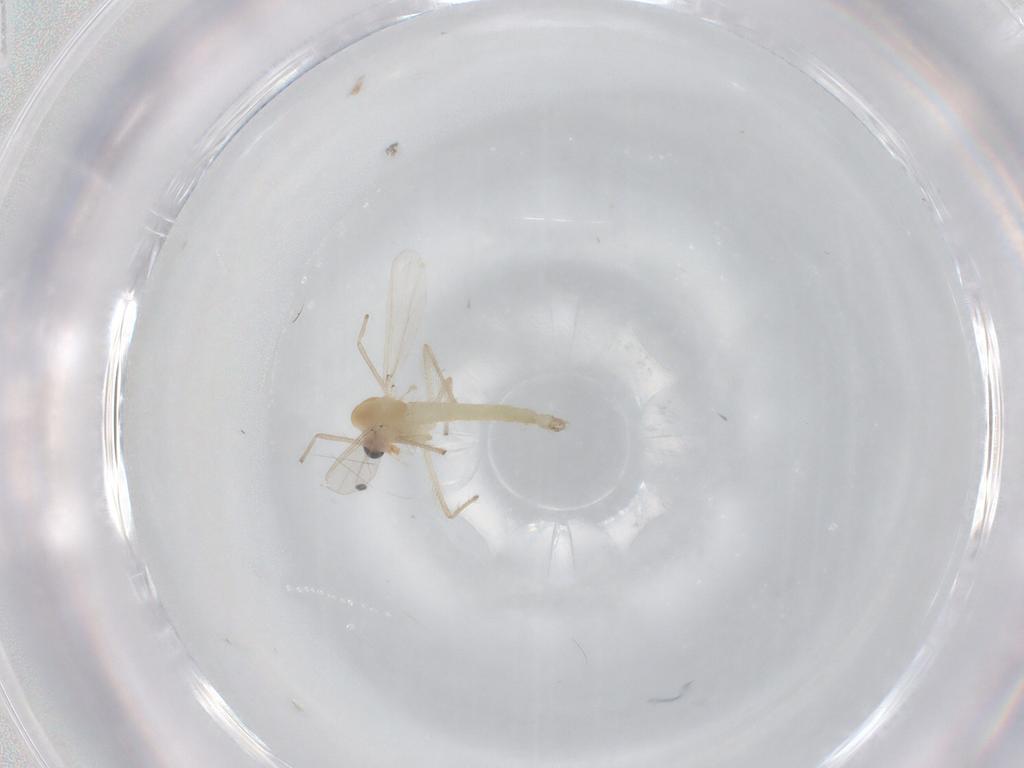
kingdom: Animalia
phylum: Arthropoda
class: Insecta
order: Diptera
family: Chironomidae
